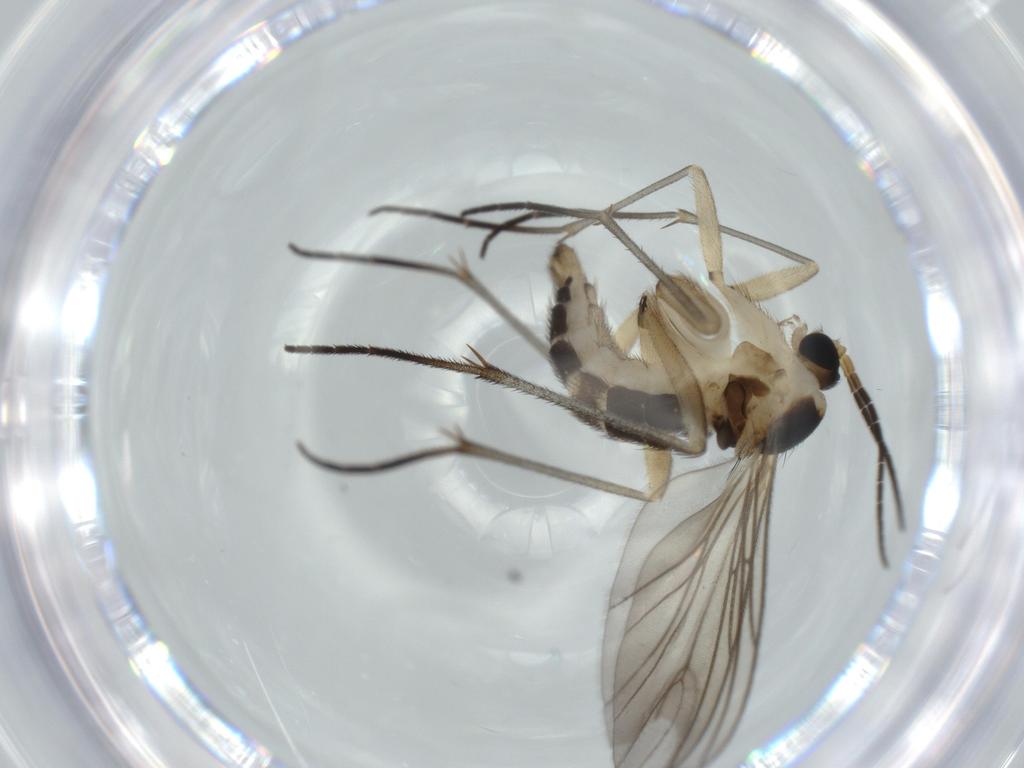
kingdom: Animalia
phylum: Arthropoda
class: Insecta
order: Diptera
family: Sciaridae
